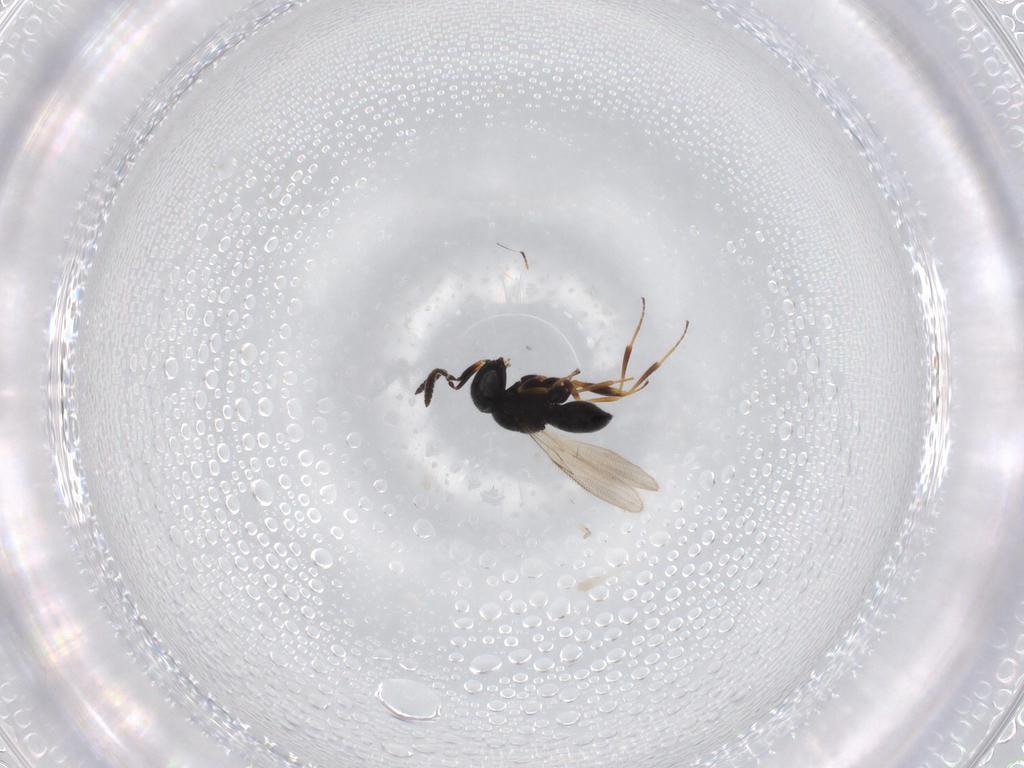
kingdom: Animalia
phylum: Arthropoda
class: Insecta
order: Hymenoptera
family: Scelionidae
